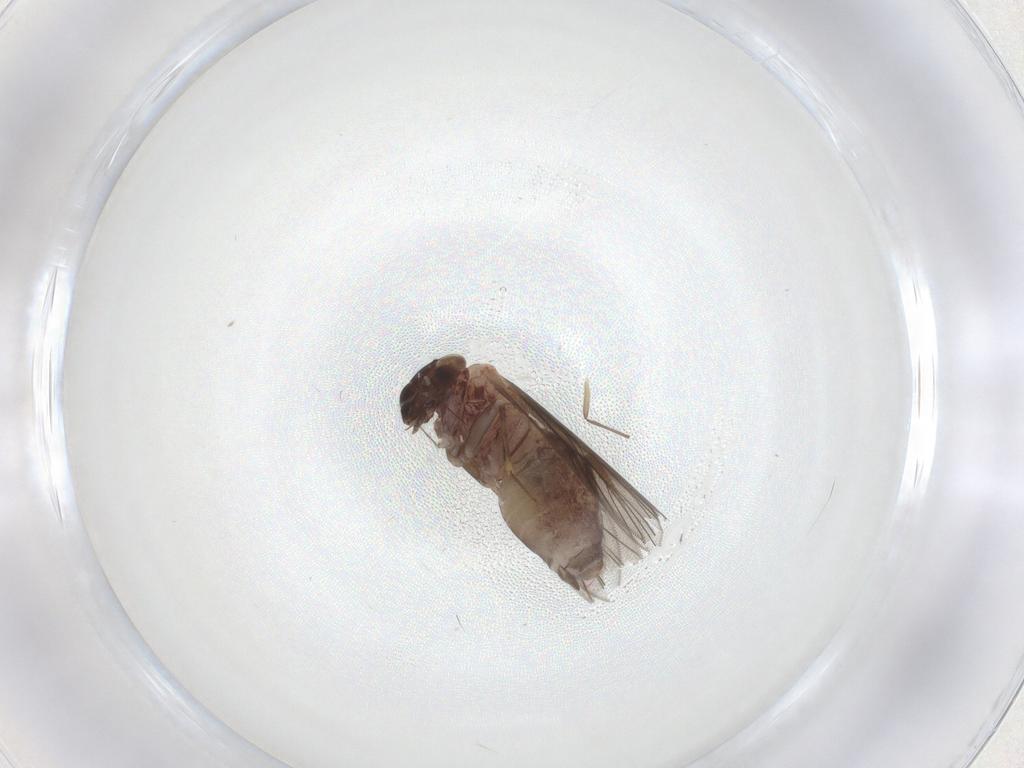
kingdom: Animalia
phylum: Arthropoda
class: Insecta
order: Psocodea
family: Lepidopsocidae
